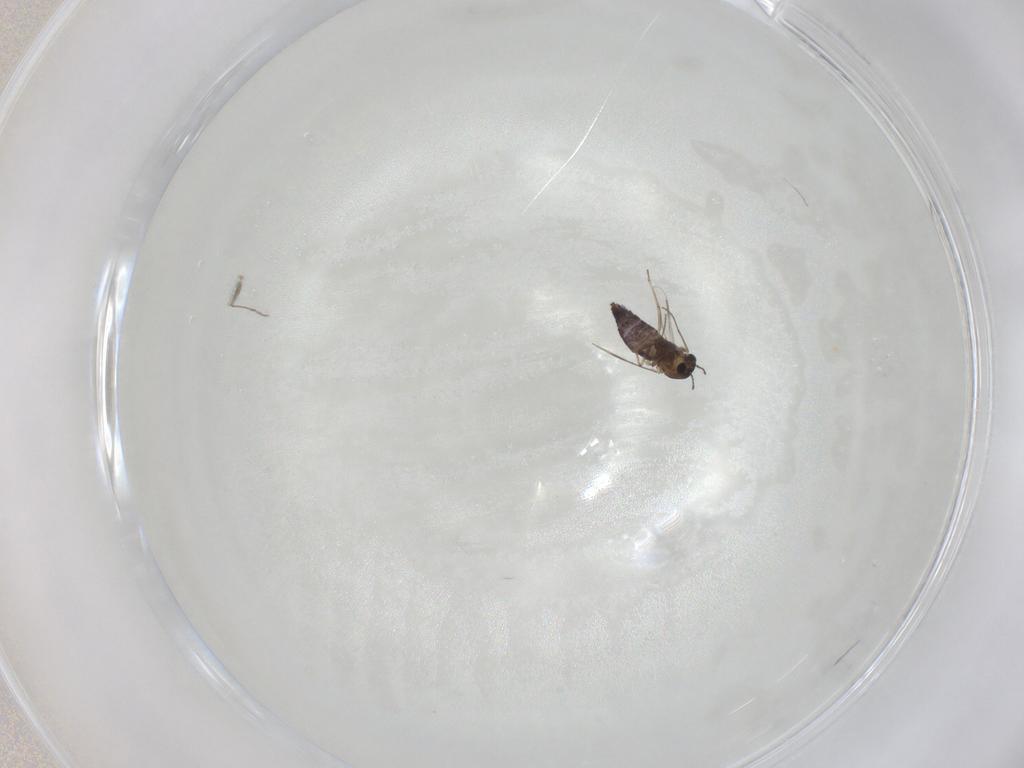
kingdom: Animalia
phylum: Arthropoda
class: Insecta
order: Diptera
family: Chironomidae
